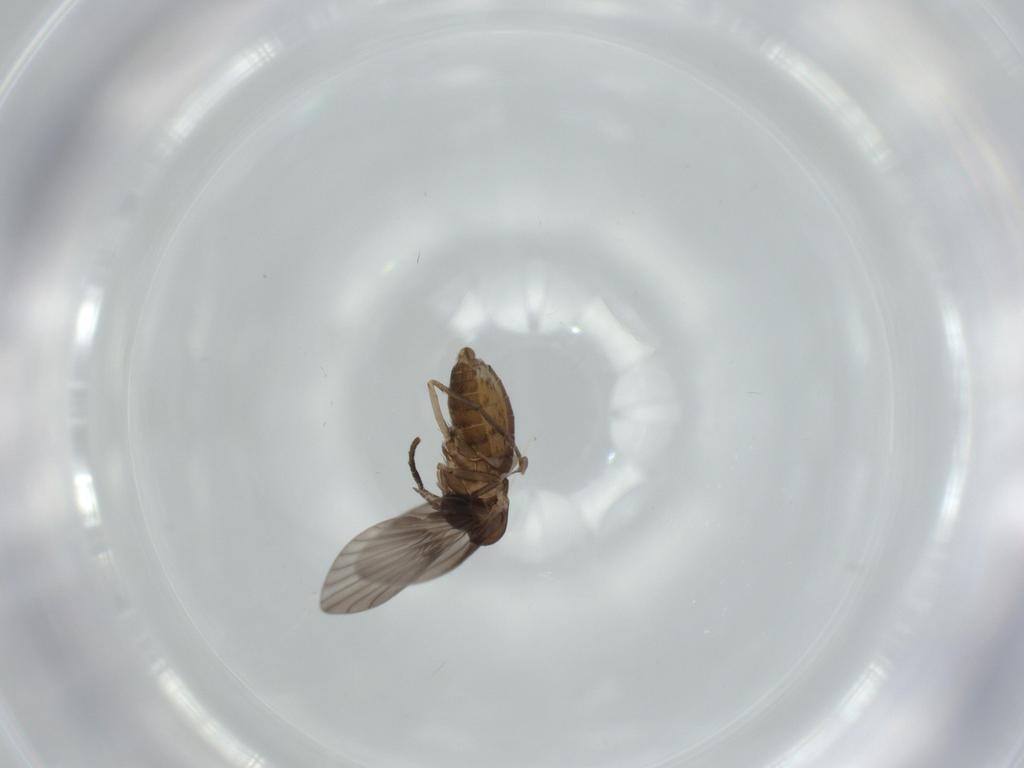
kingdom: Animalia
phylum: Arthropoda
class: Insecta
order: Diptera
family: Psychodidae
